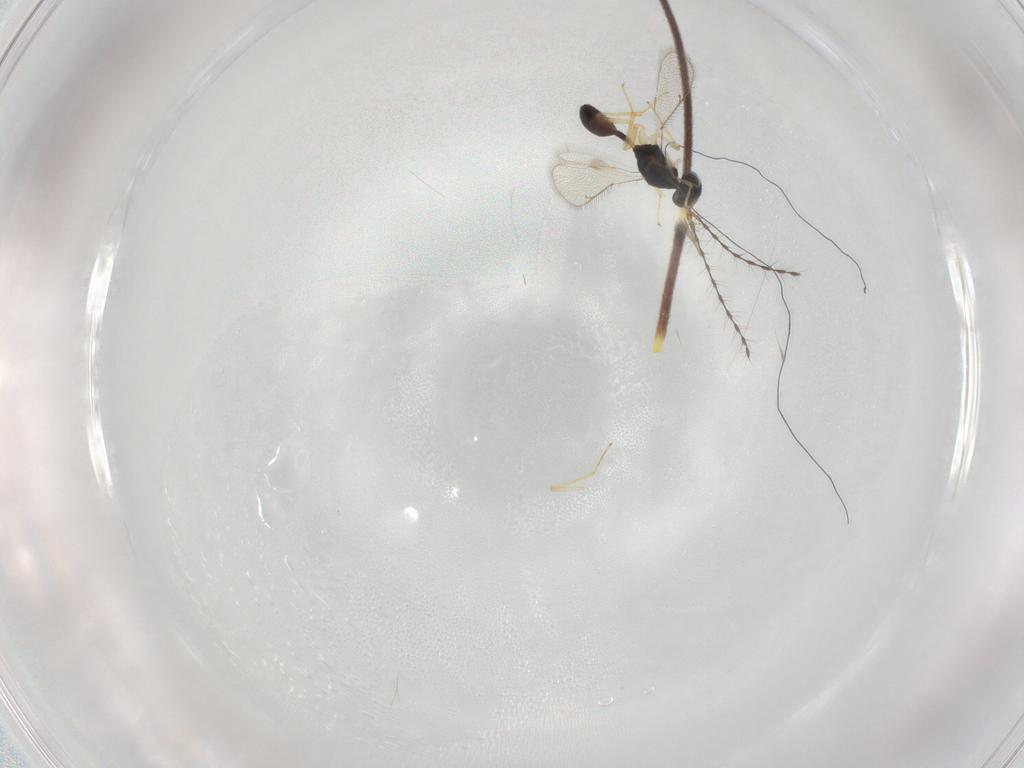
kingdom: Animalia
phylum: Arthropoda
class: Insecta
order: Hymenoptera
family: Diparidae
